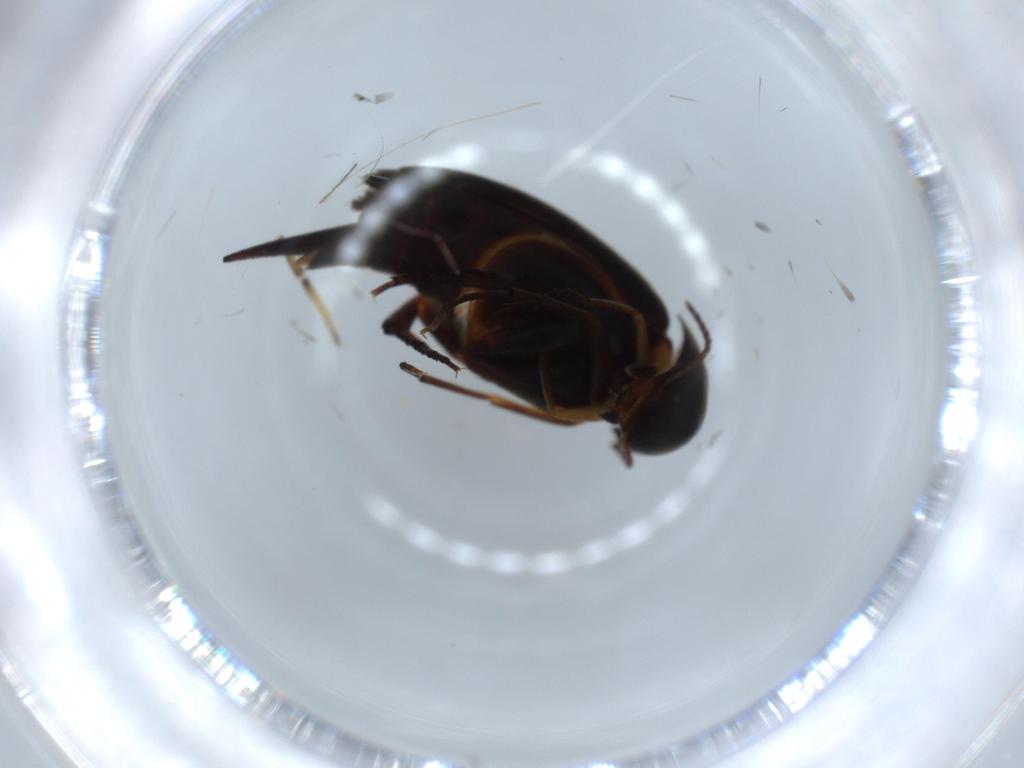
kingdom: Animalia
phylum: Arthropoda
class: Insecta
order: Coleoptera
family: Mordellidae
